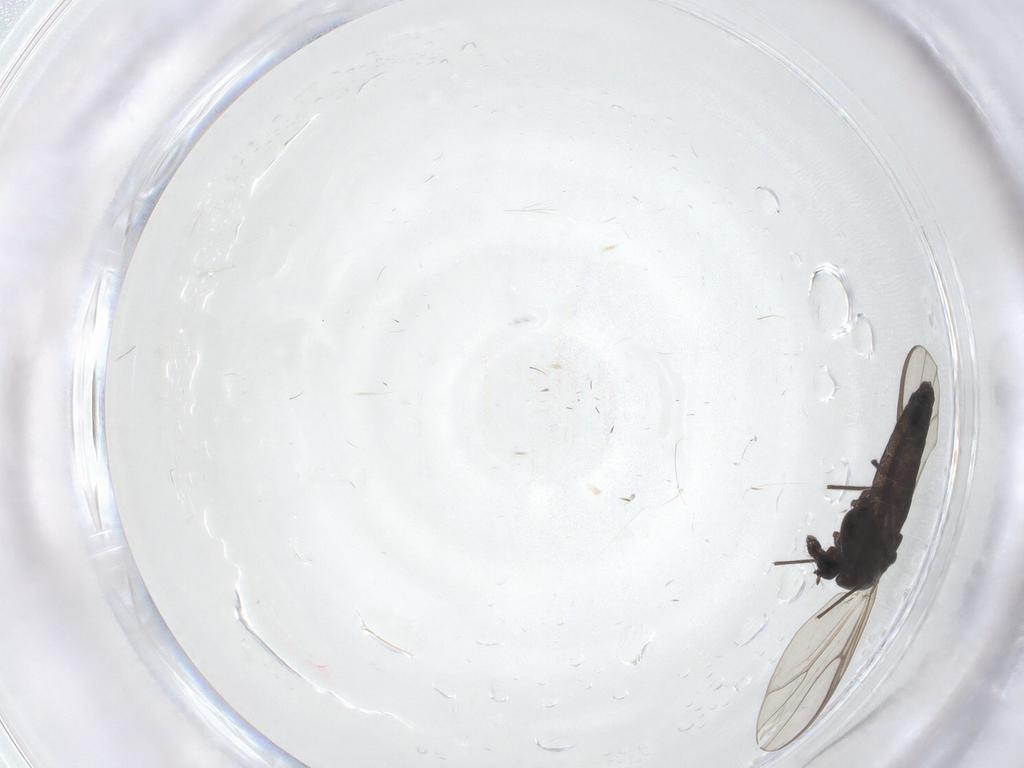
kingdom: Animalia
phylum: Arthropoda
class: Insecta
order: Diptera
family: Chironomidae
